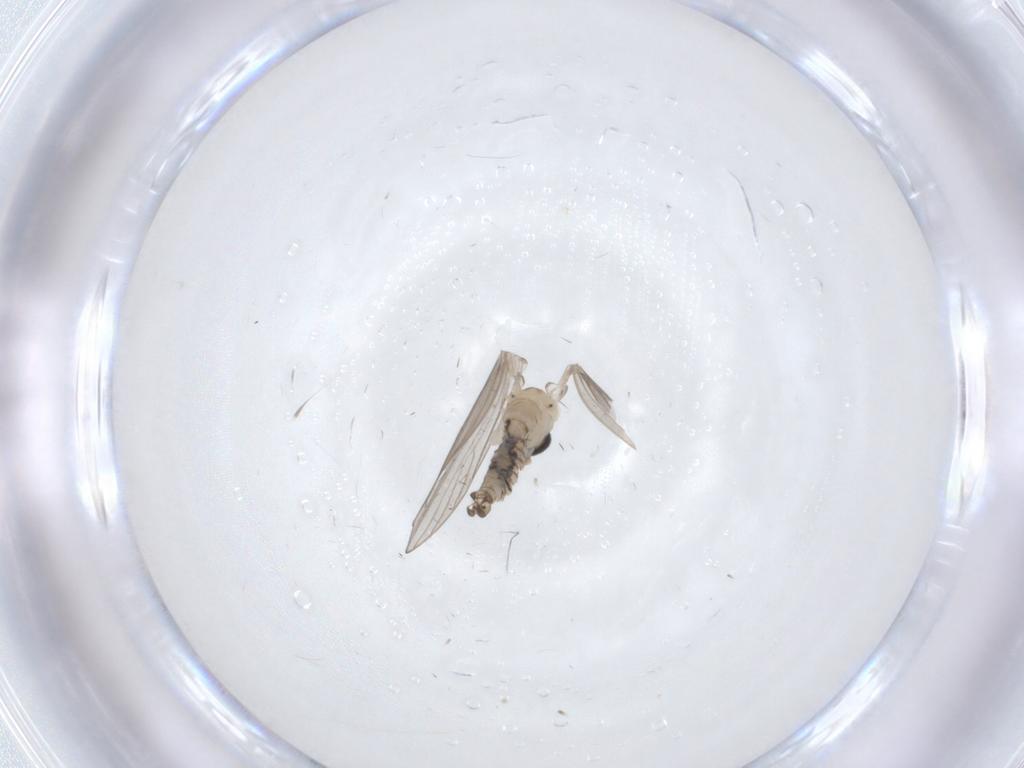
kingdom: Animalia
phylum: Arthropoda
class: Insecta
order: Diptera
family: Psychodidae
